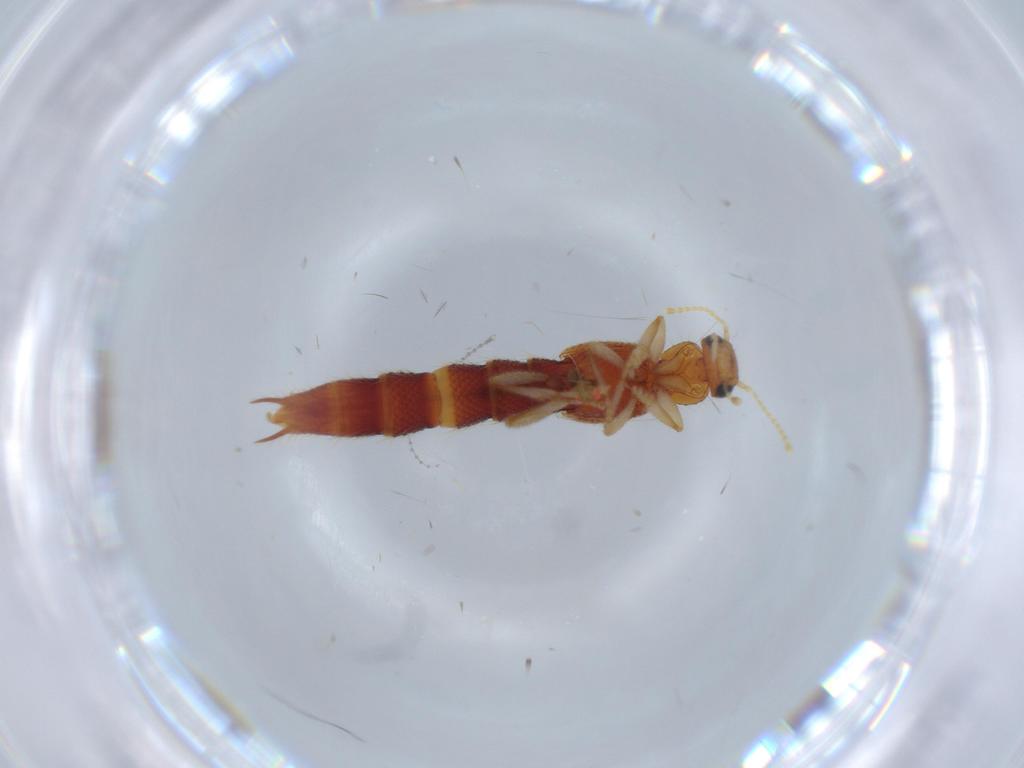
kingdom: Animalia
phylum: Arthropoda
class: Insecta
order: Coleoptera
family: Staphylinidae
